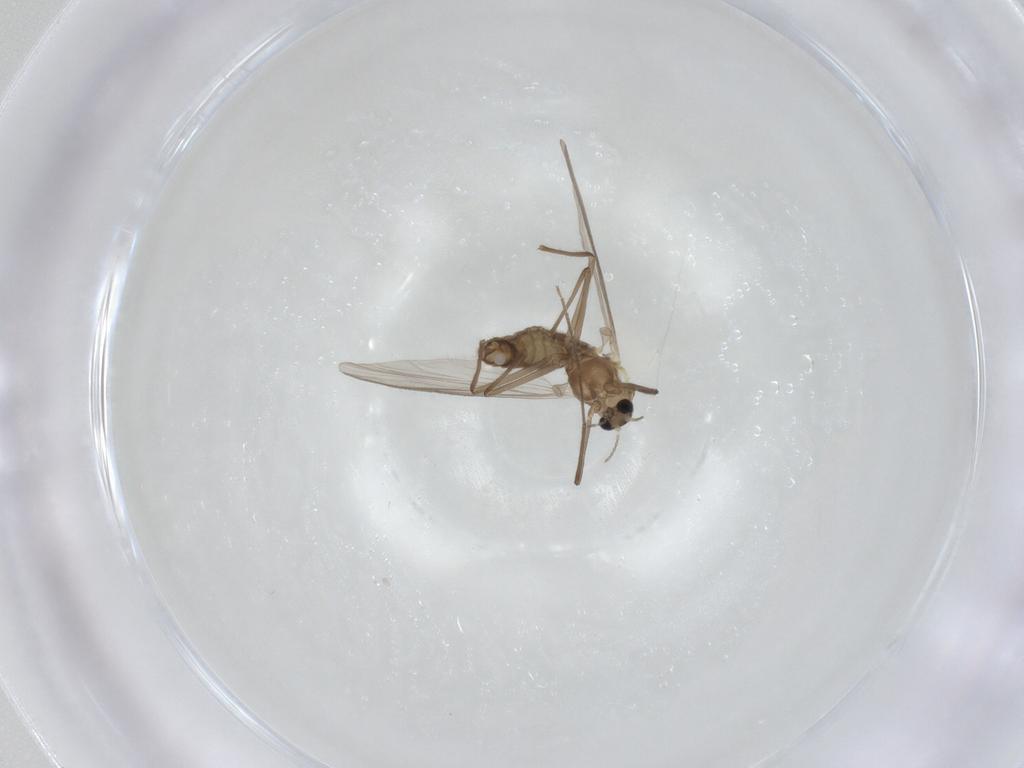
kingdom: Animalia
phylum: Arthropoda
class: Insecta
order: Diptera
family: Chironomidae
